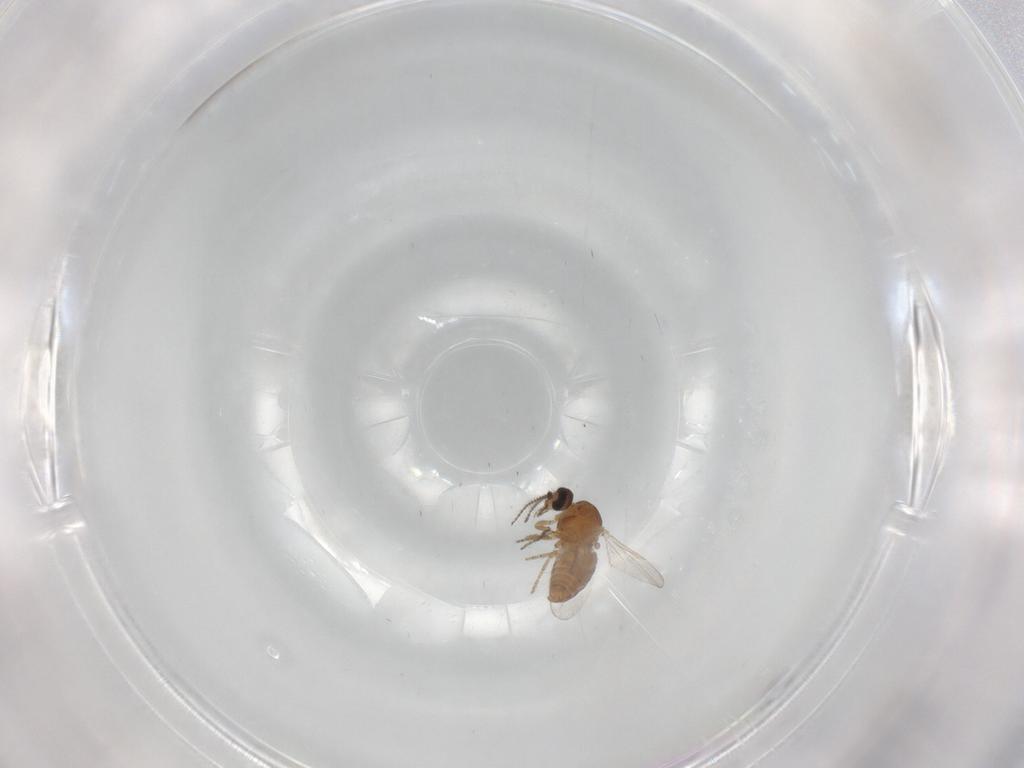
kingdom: Animalia
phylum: Arthropoda
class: Insecta
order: Diptera
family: Ceratopogonidae
